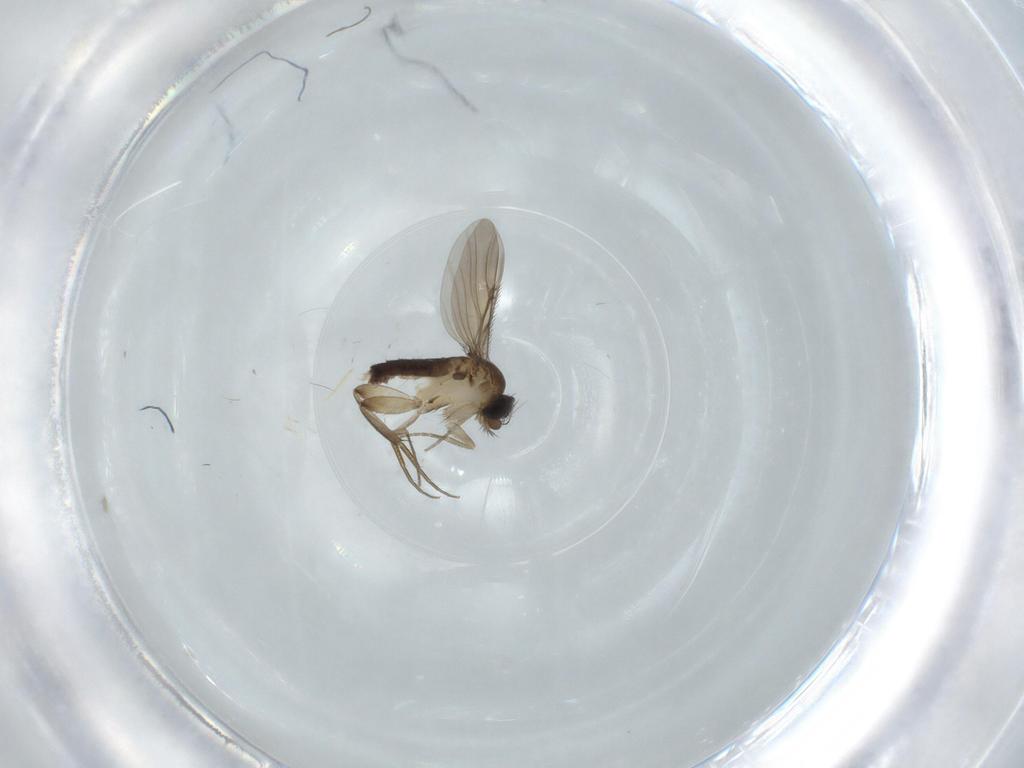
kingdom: Animalia
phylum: Arthropoda
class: Insecta
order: Diptera
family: Phoridae
